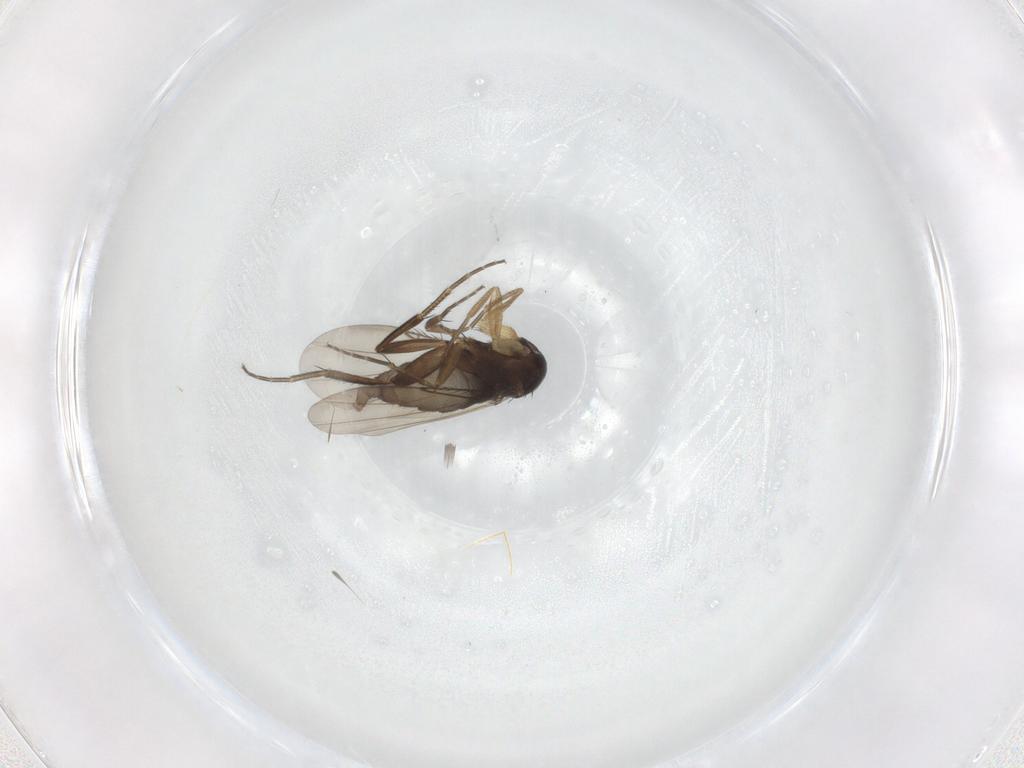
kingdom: Animalia
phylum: Arthropoda
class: Insecta
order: Diptera
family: Phoridae
